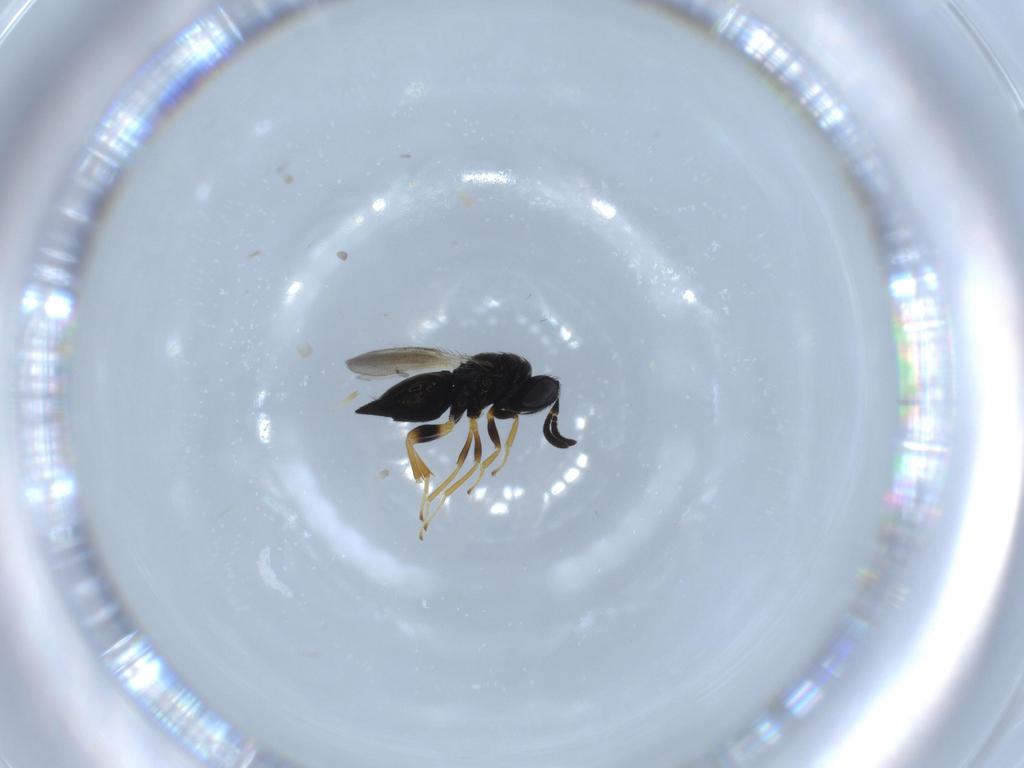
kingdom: Animalia
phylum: Arthropoda
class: Insecta
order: Hymenoptera
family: Pteromalidae
